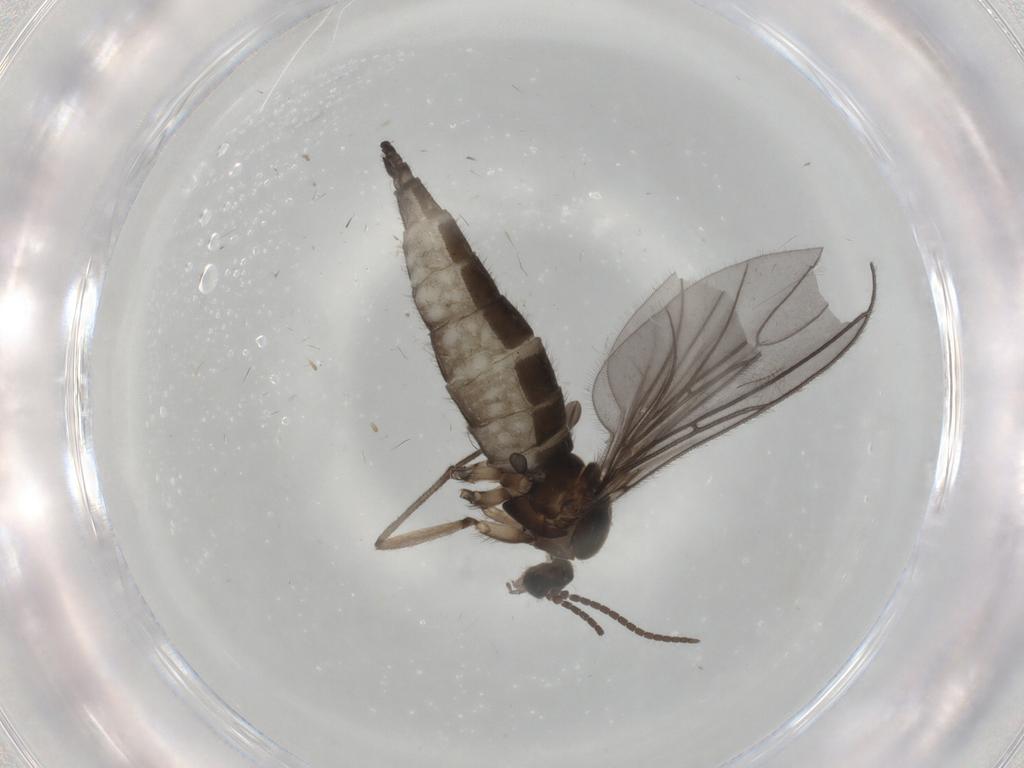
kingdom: Animalia
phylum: Arthropoda
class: Insecta
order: Diptera
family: Sciaridae
